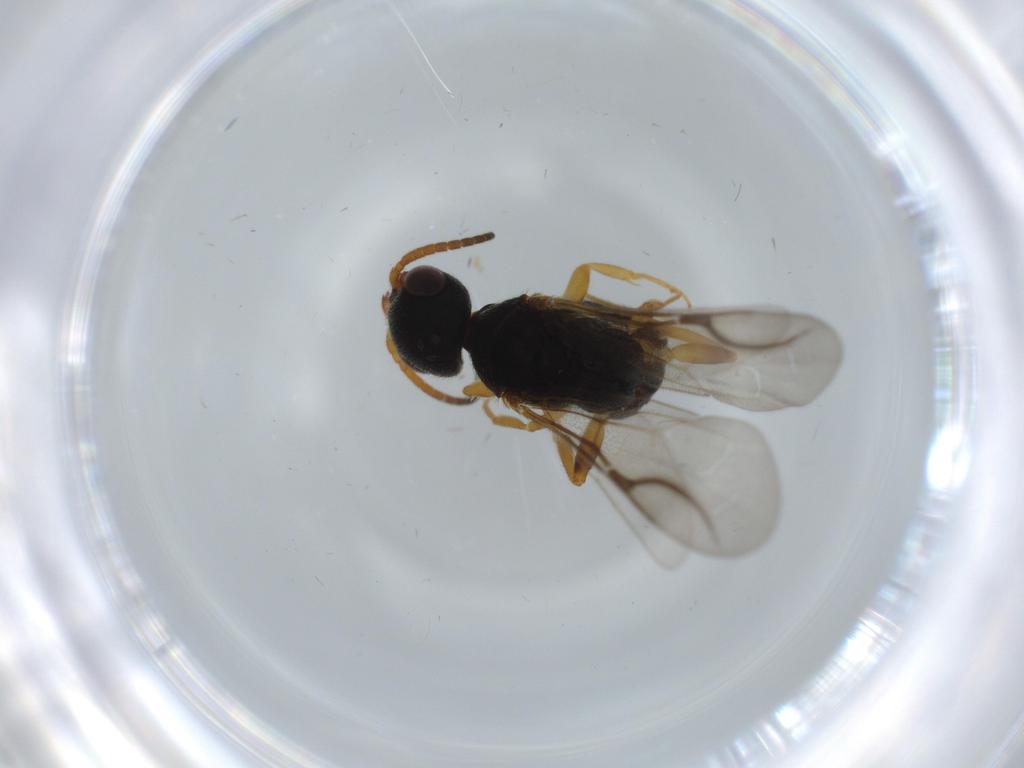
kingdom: Animalia
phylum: Arthropoda
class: Insecta
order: Hymenoptera
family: Bethylidae
